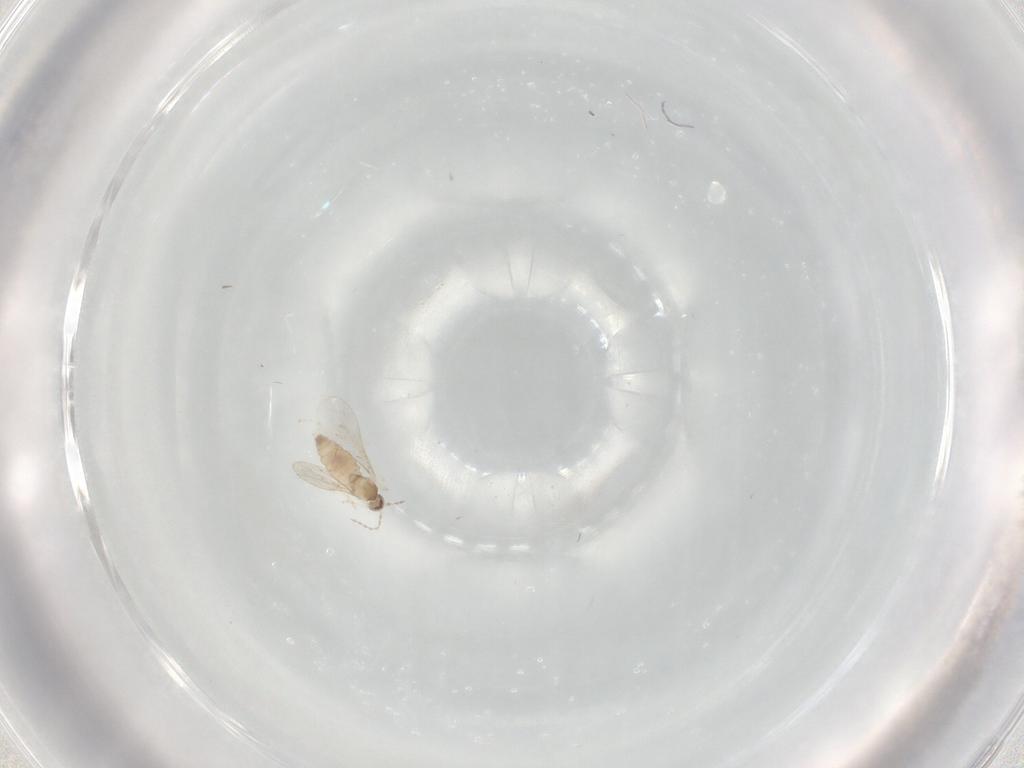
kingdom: Animalia
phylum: Arthropoda
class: Insecta
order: Diptera
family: Cecidomyiidae
